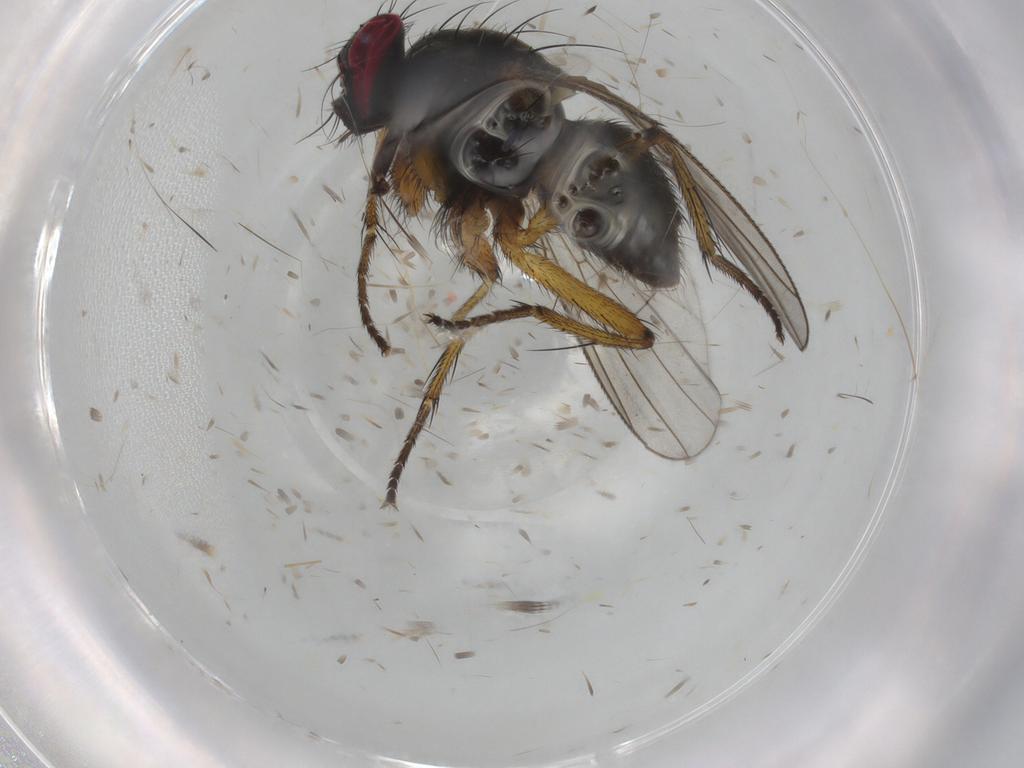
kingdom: Animalia
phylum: Arthropoda
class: Insecta
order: Diptera
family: Muscidae
